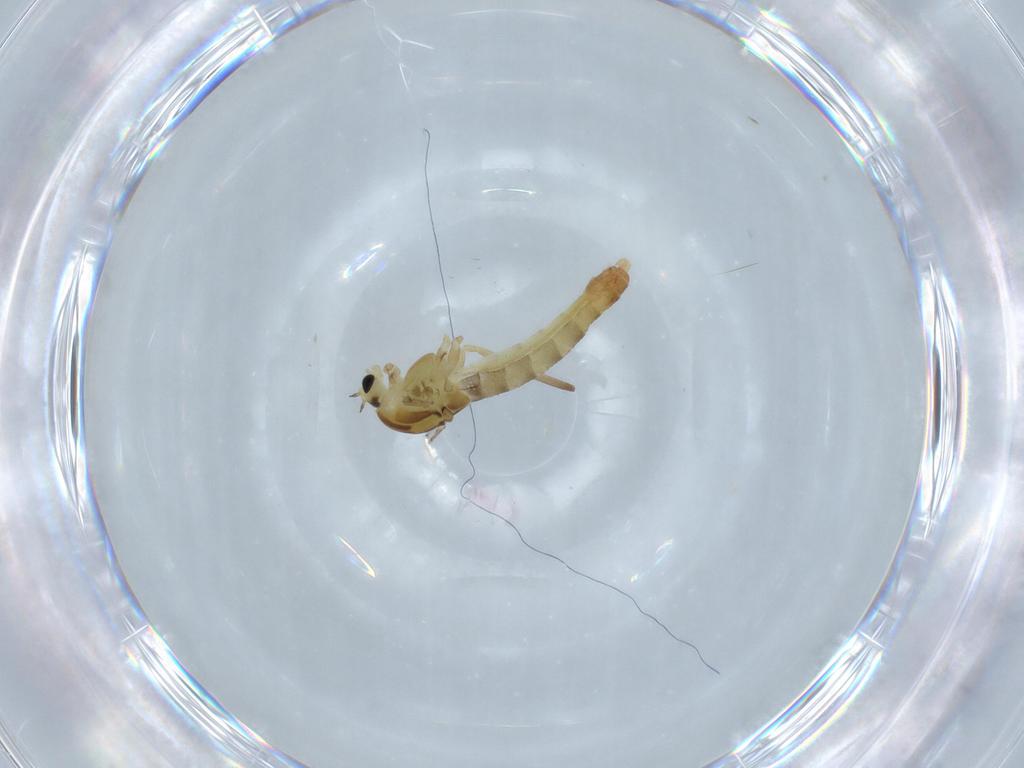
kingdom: Animalia
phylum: Arthropoda
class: Insecta
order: Diptera
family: Chironomidae
